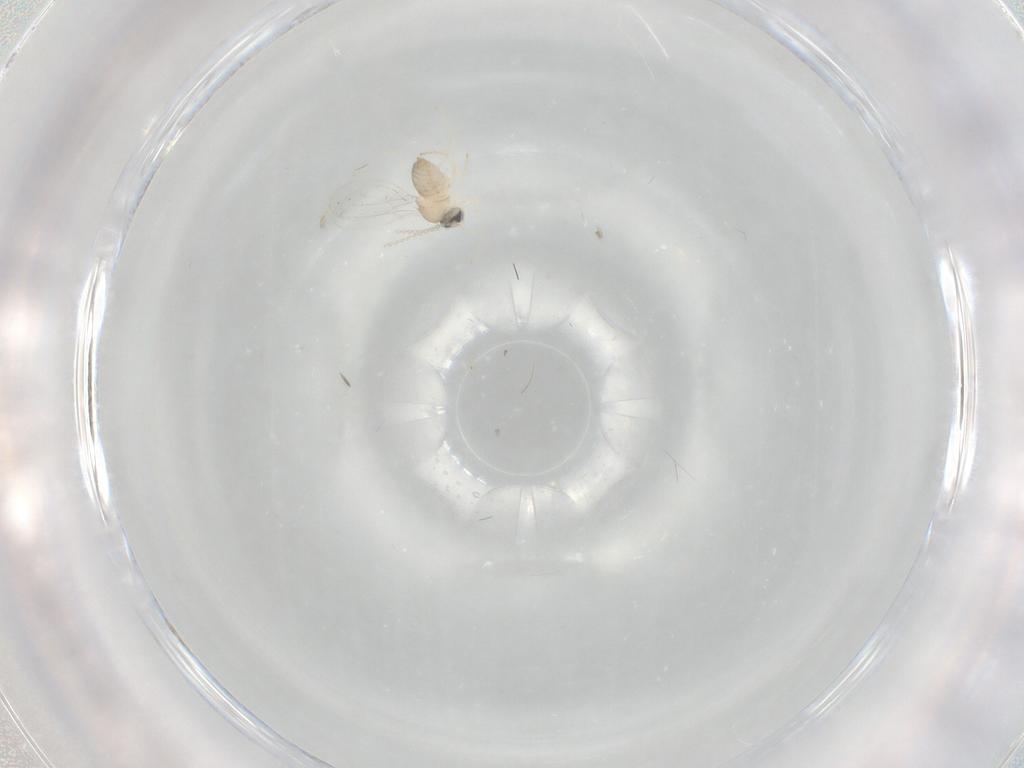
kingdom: Animalia
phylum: Arthropoda
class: Insecta
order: Diptera
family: Cecidomyiidae
